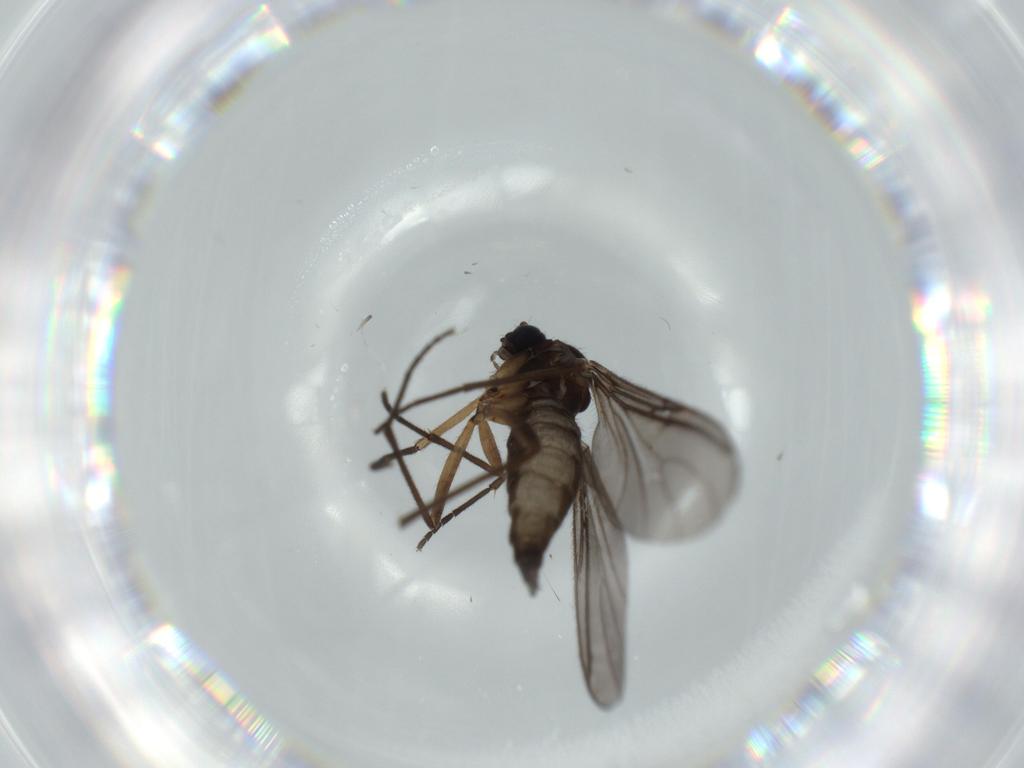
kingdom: Animalia
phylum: Arthropoda
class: Insecta
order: Diptera
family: Sciaridae
